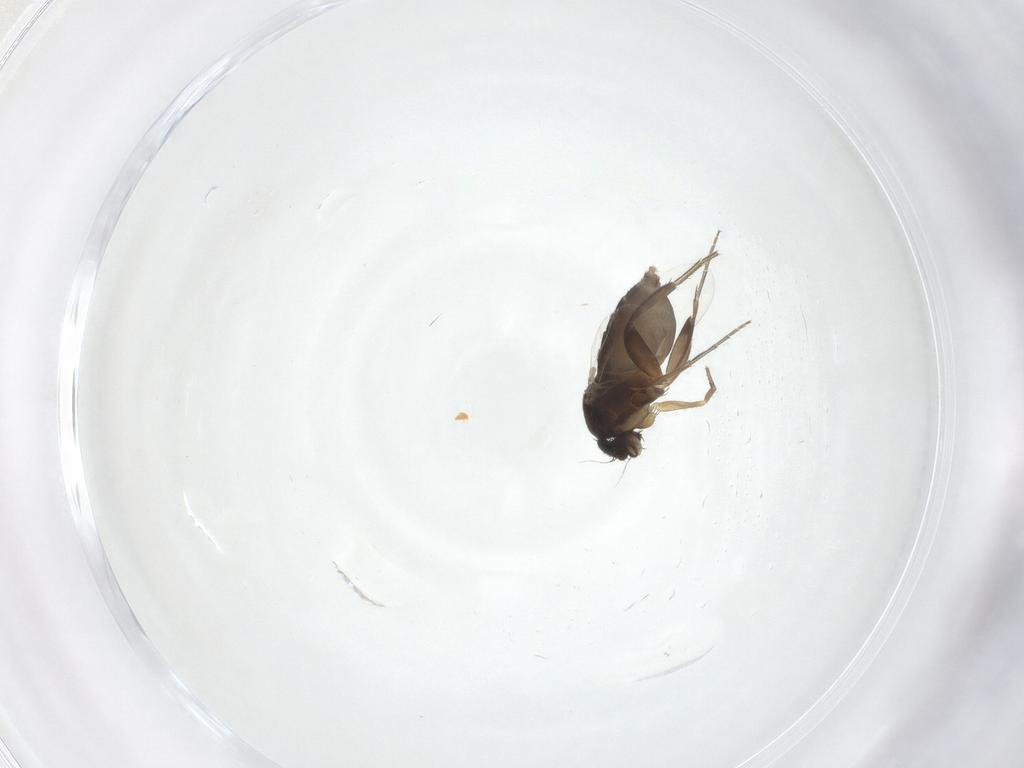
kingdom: Animalia
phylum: Arthropoda
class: Insecta
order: Diptera
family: Phoridae
